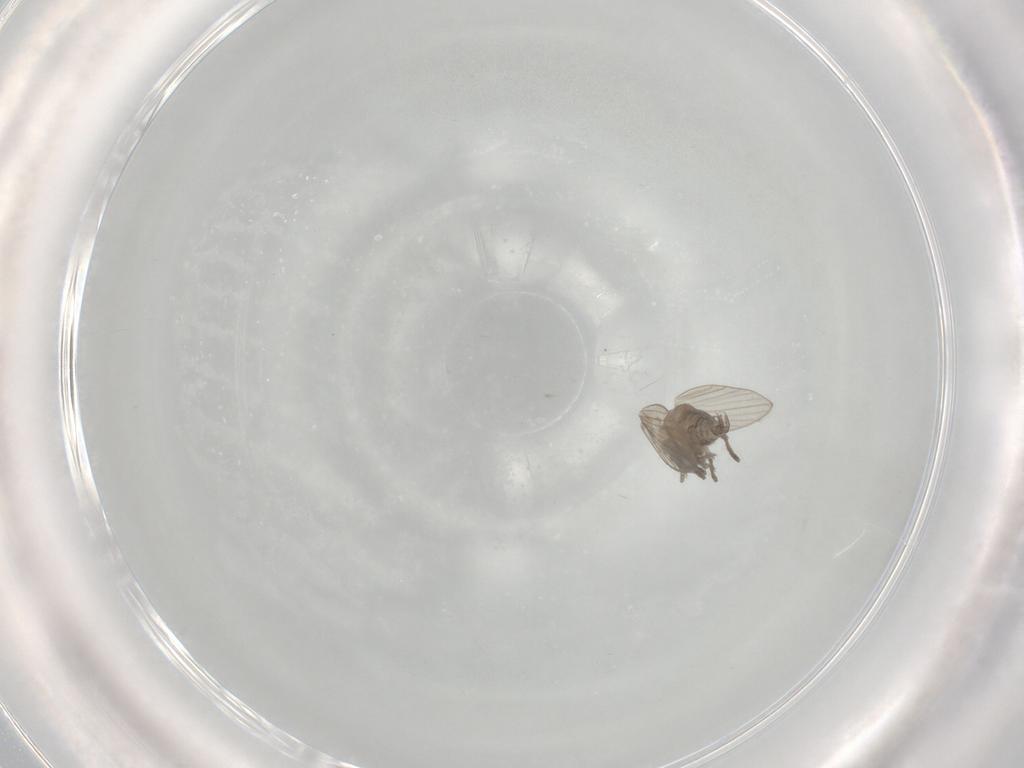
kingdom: Animalia
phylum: Arthropoda
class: Insecta
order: Diptera
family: Psychodidae
